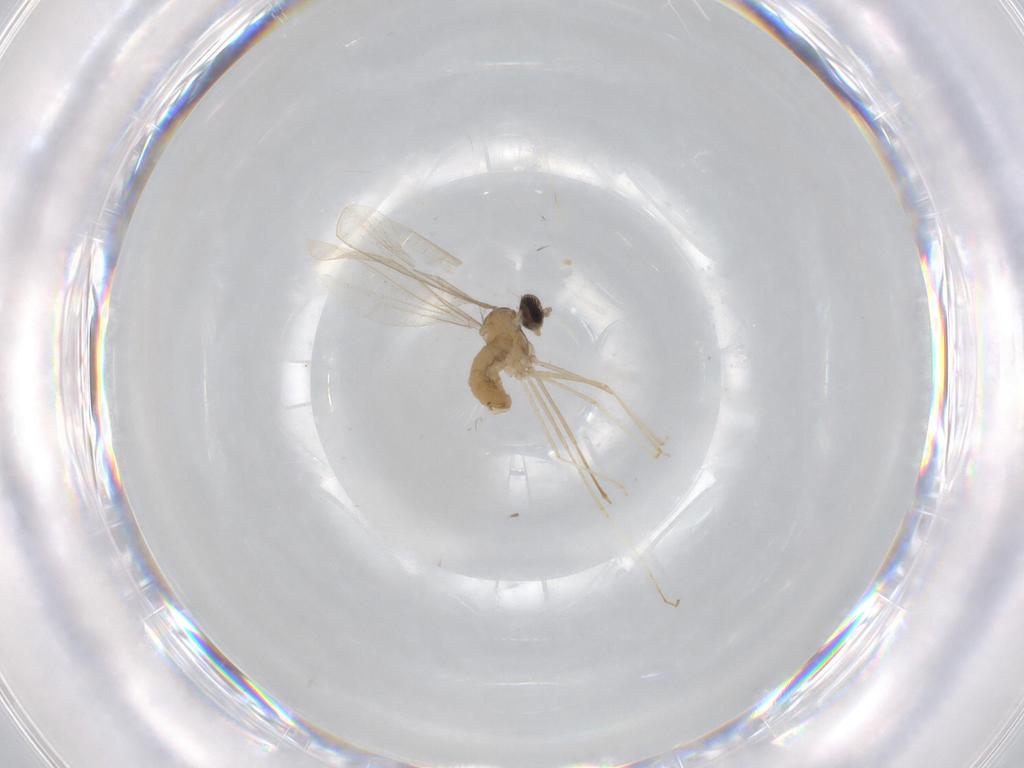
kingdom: Animalia
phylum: Arthropoda
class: Insecta
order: Diptera
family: Cecidomyiidae
